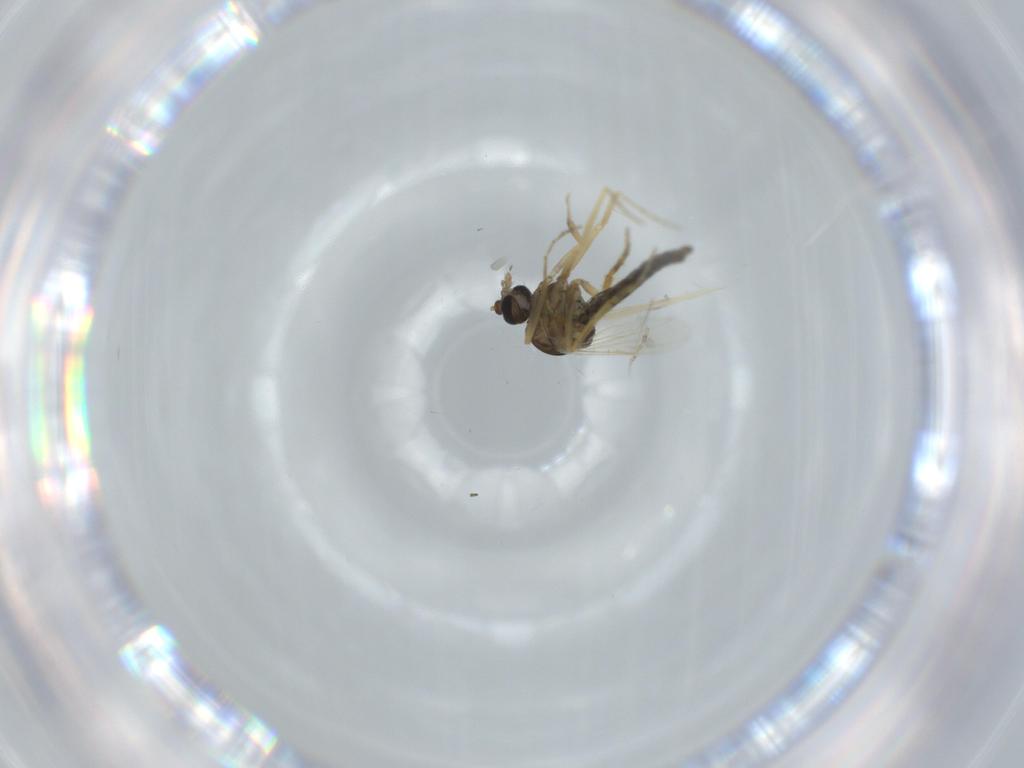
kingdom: Animalia
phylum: Arthropoda
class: Insecta
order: Diptera
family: Ceratopogonidae
